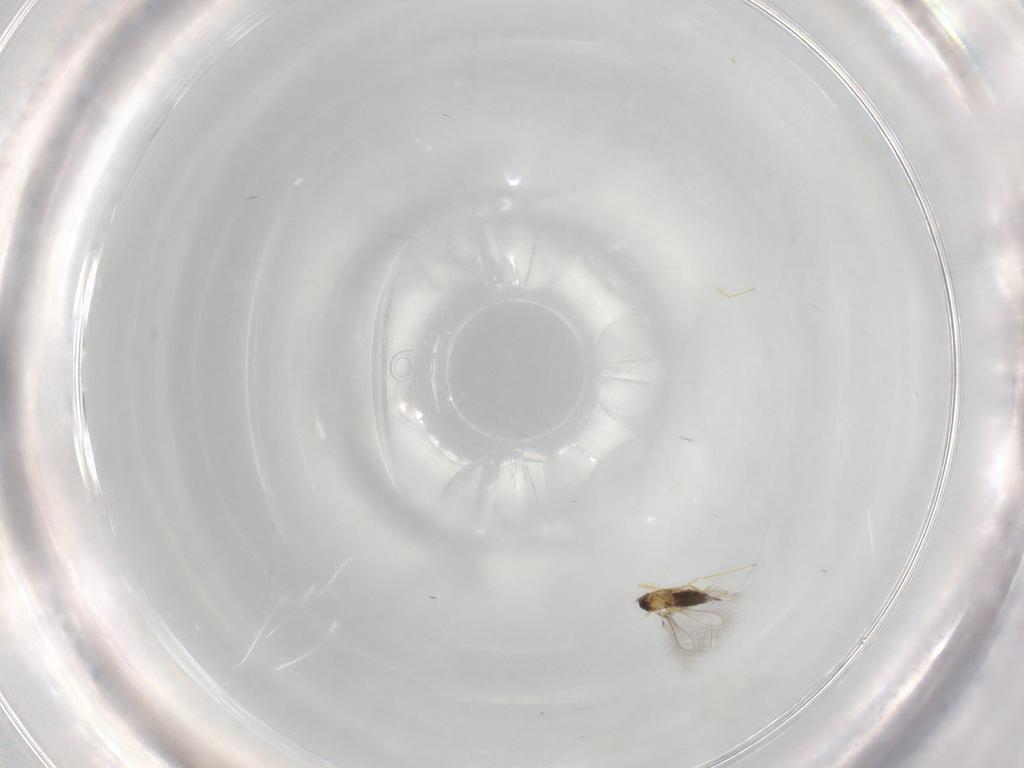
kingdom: Animalia
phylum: Arthropoda
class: Insecta
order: Hymenoptera
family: Mymaridae
